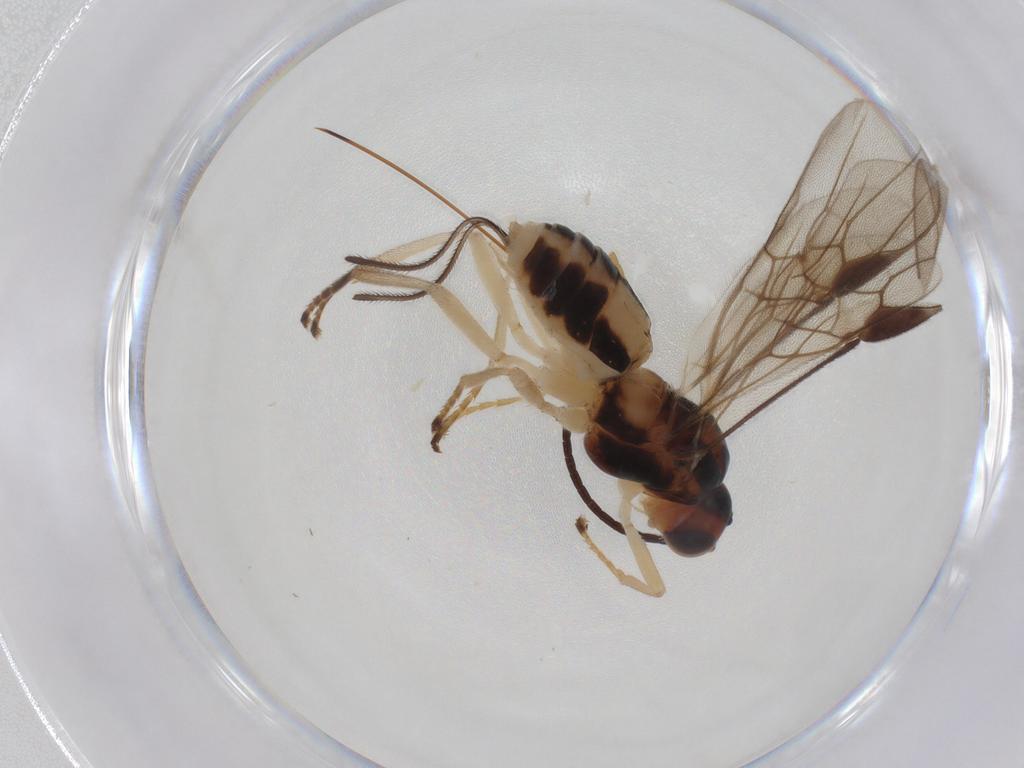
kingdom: Animalia
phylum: Arthropoda
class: Insecta
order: Hymenoptera
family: Braconidae
